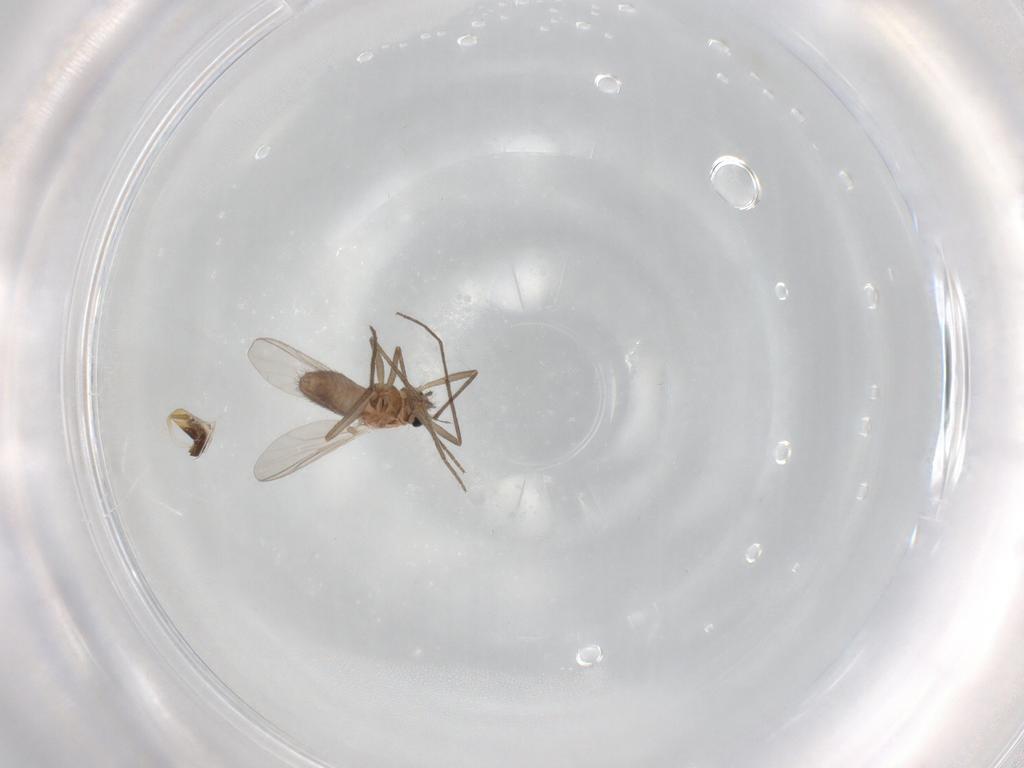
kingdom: Animalia
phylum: Arthropoda
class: Insecta
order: Diptera
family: Chironomidae
